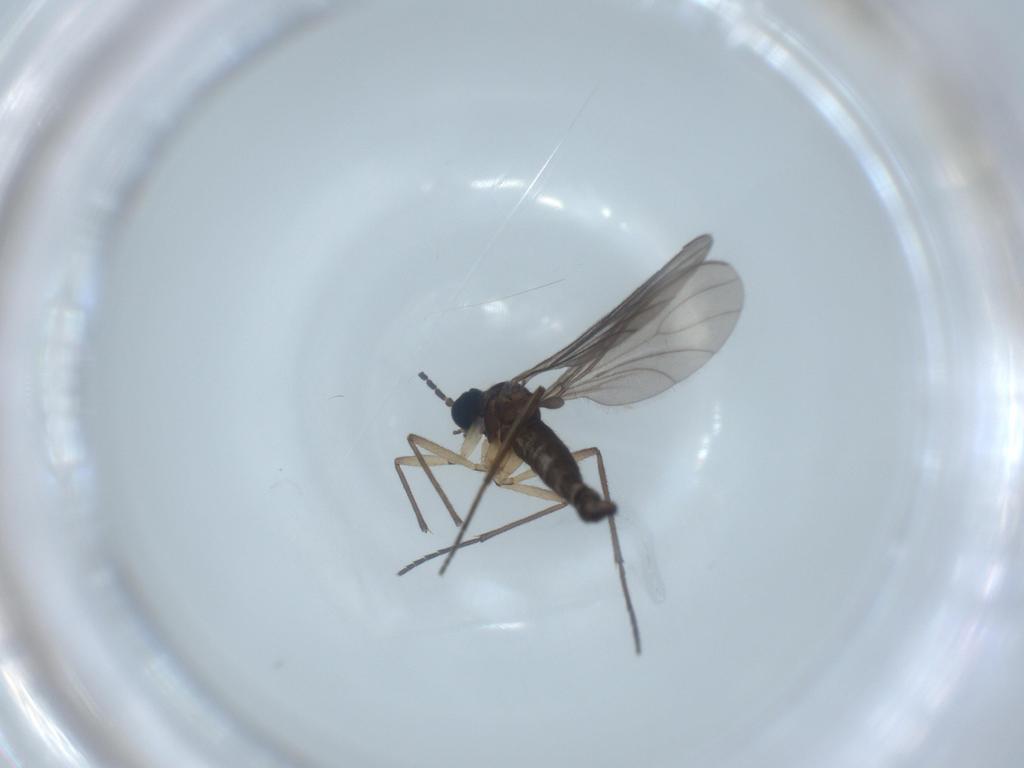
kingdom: Animalia
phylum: Arthropoda
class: Insecta
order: Diptera
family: Sciaridae
